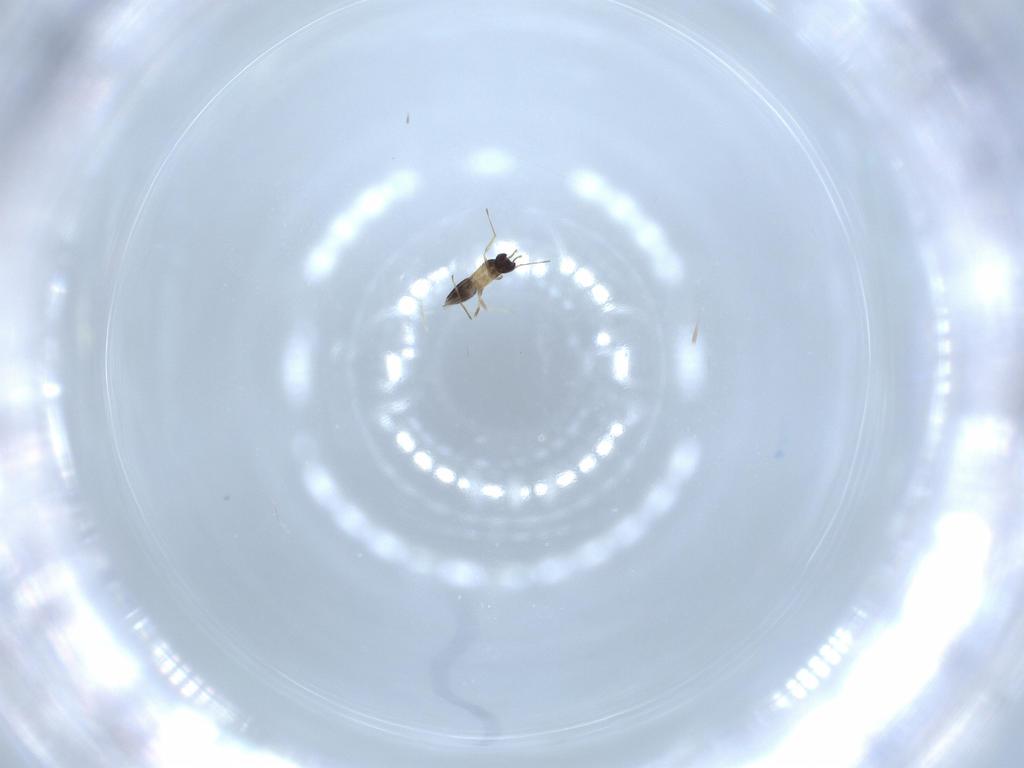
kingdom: Animalia
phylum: Arthropoda
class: Insecta
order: Hymenoptera
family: Mymaridae
